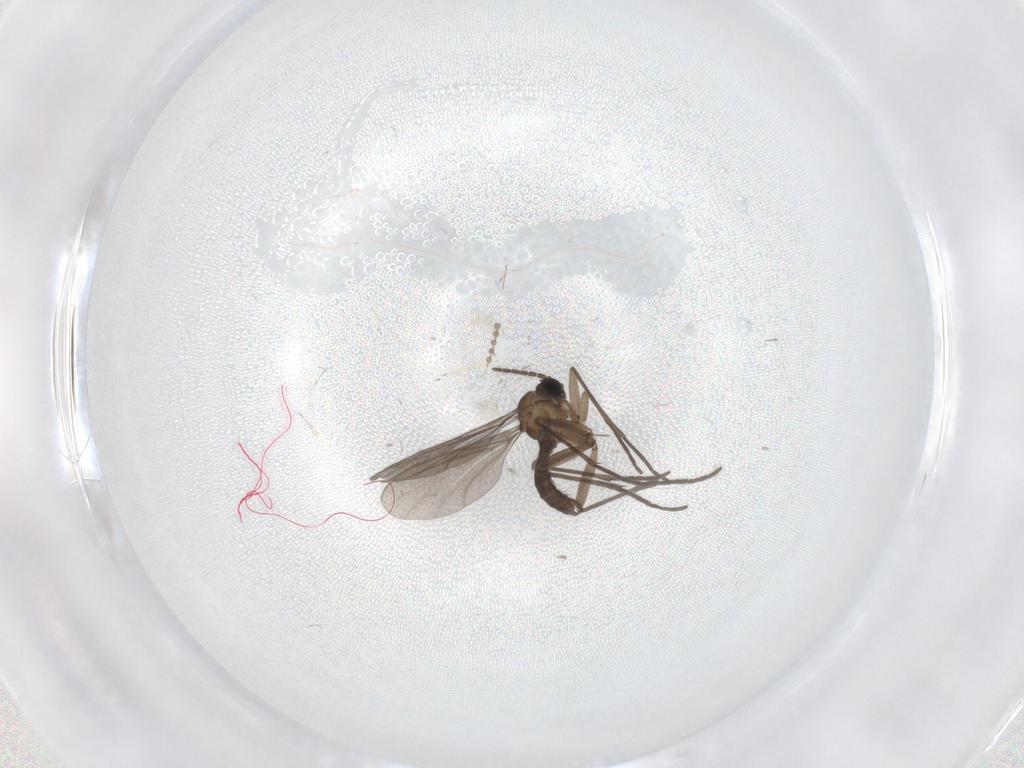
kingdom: Animalia
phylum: Arthropoda
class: Insecta
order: Diptera
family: Sciaridae
